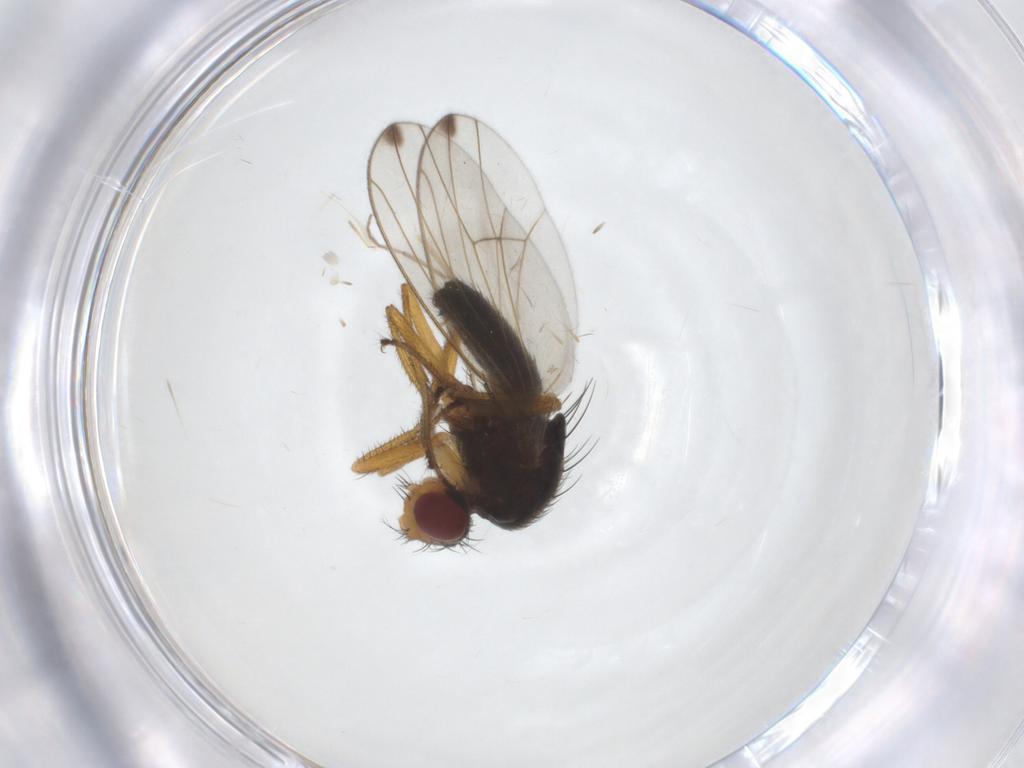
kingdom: Animalia
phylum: Arthropoda
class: Insecta
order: Diptera
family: Drosophilidae
